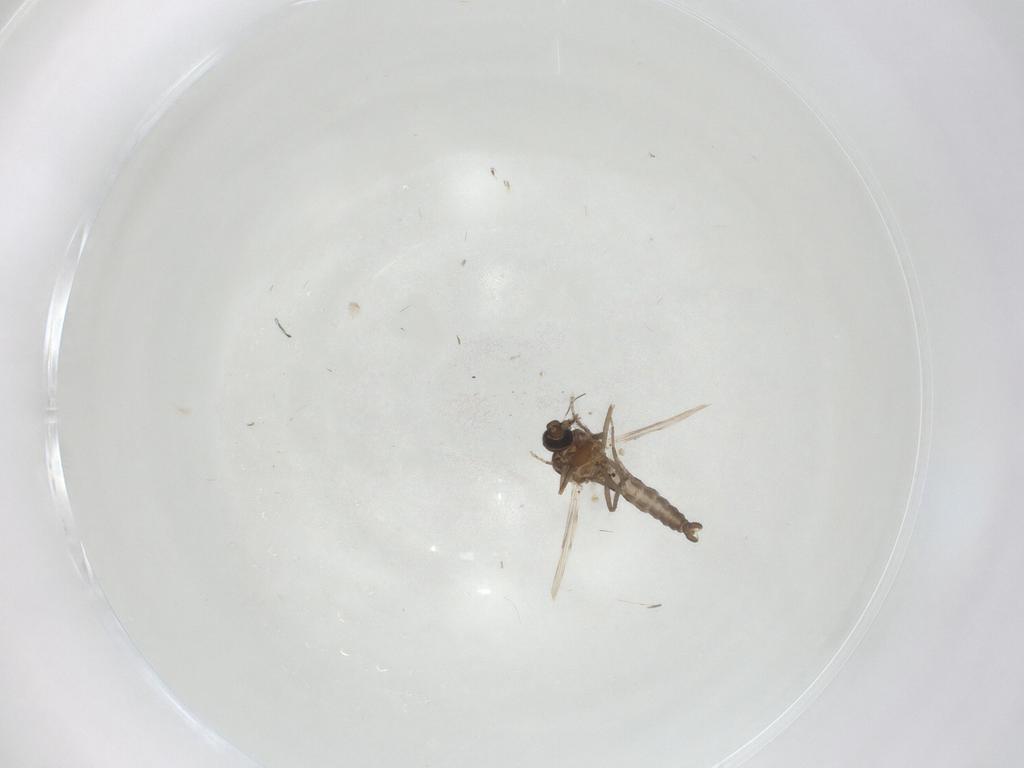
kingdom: Animalia
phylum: Arthropoda
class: Insecta
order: Diptera
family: Ceratopogonidae
